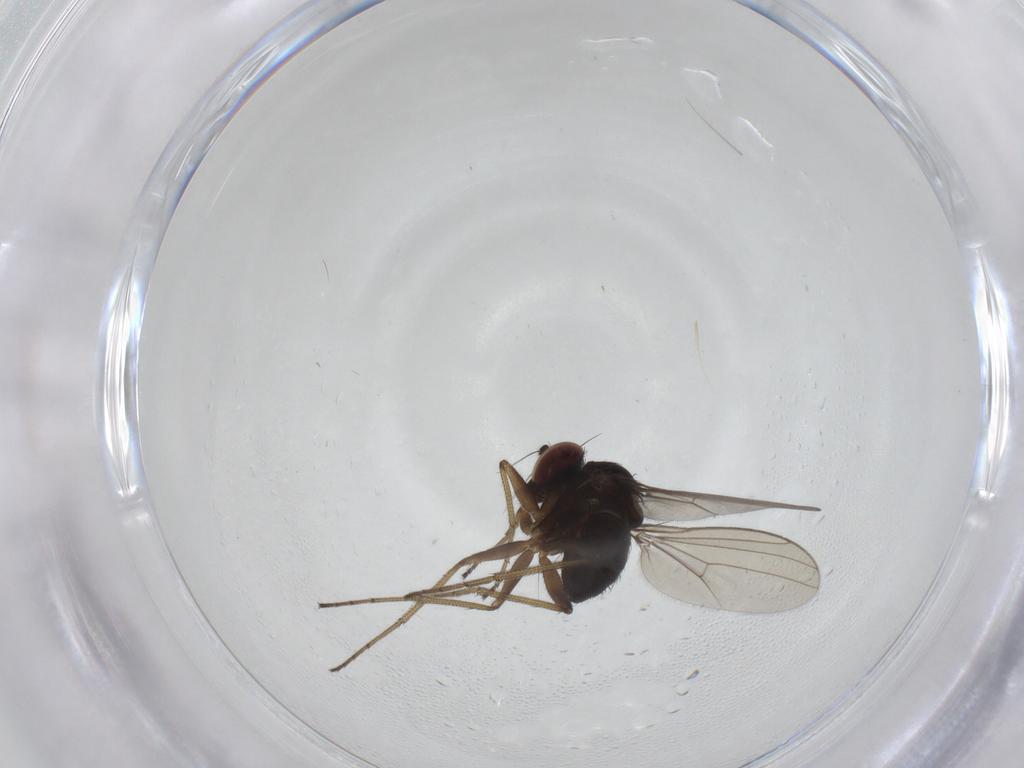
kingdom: Animalia
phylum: Arthropoda
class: Insecta
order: Diptera
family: Dolichopodidae
